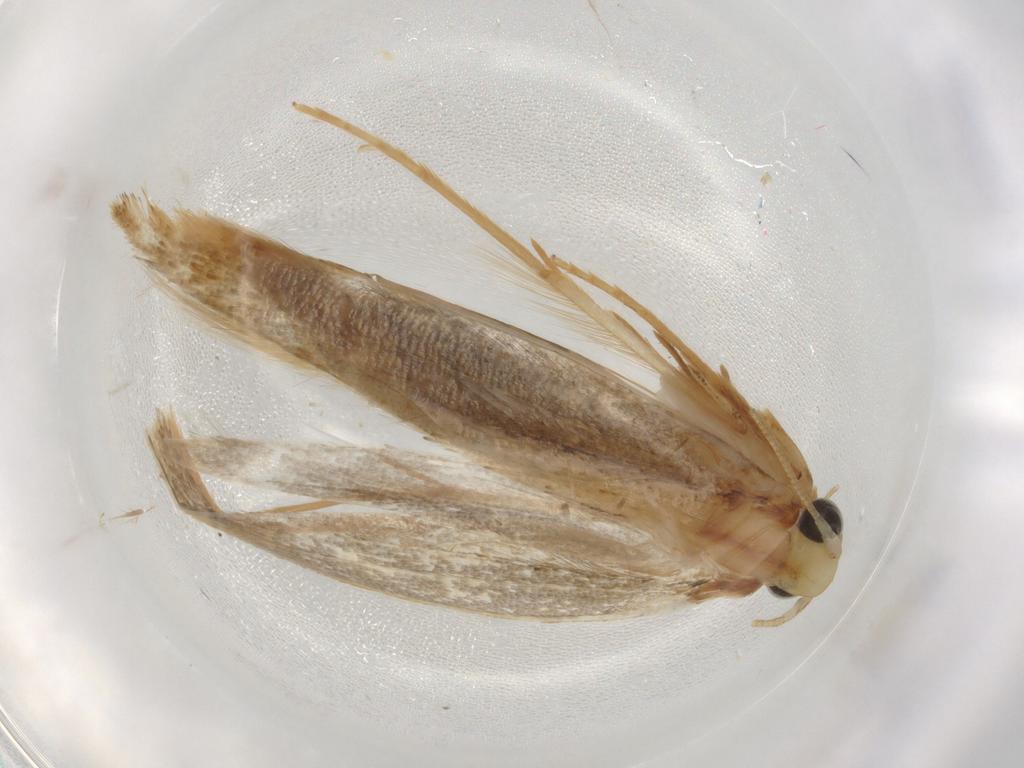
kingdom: Animalia
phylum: Arthropoda
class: Insecta
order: Lepidoptera
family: Tineidae
